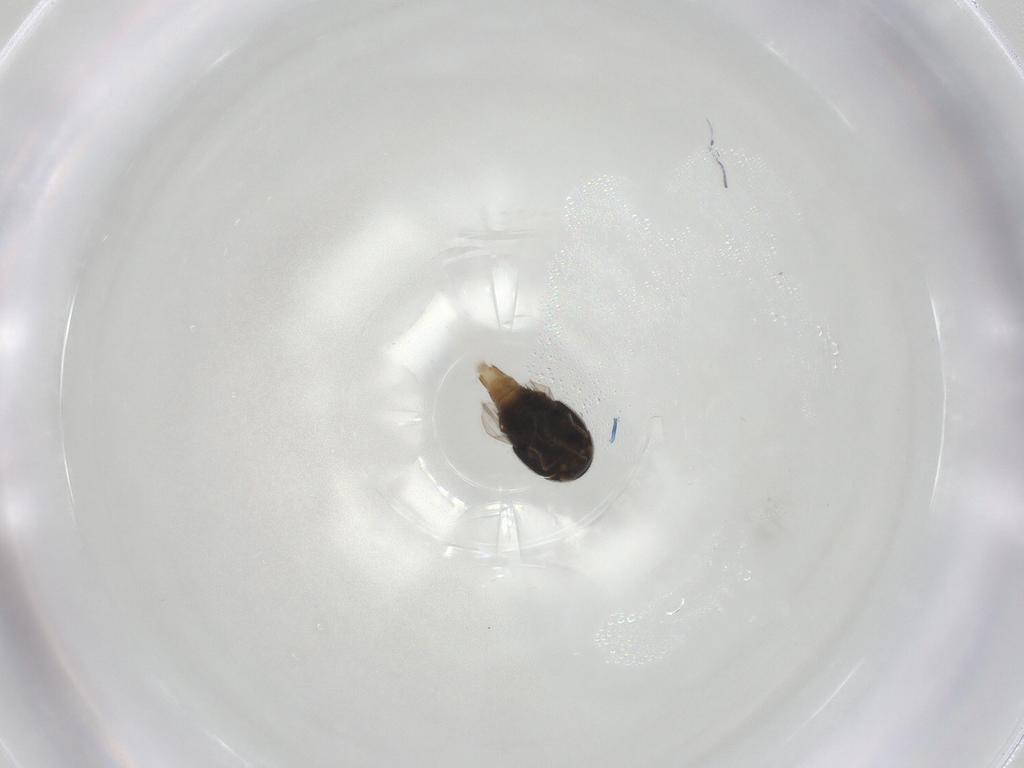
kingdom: Animalia
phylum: Arthropoda
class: Insecta
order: Coleoptera
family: Staphylinidae
